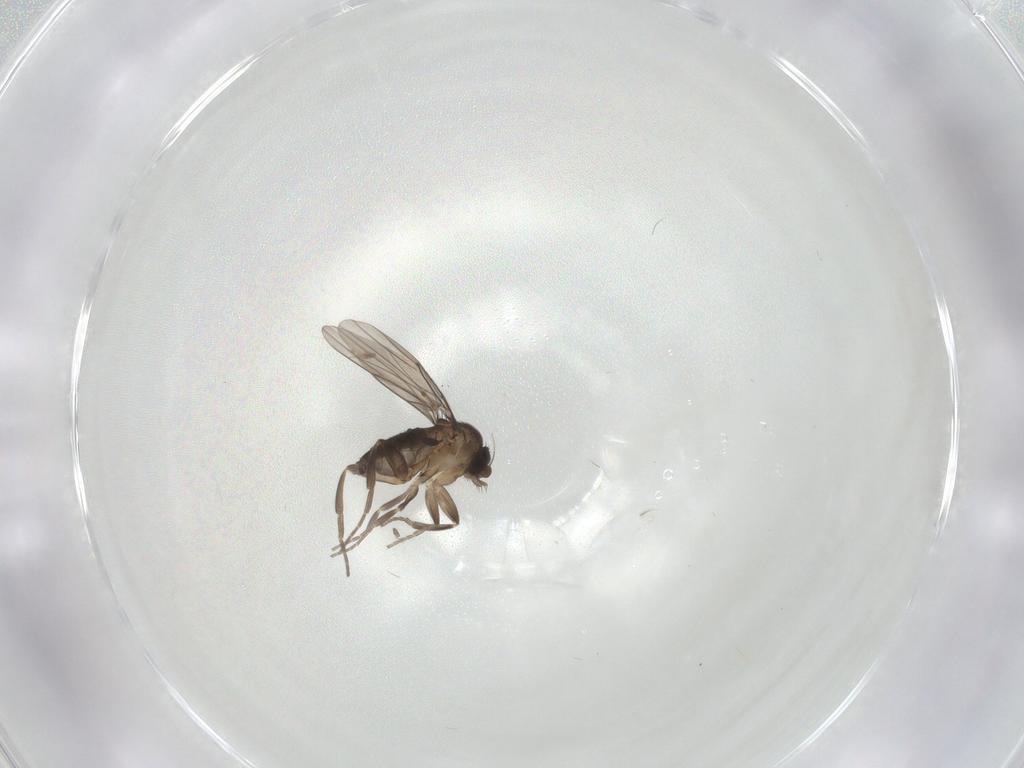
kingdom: Animalia
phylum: Arthropoda
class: Insecta
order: Diptera
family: Phoridae
